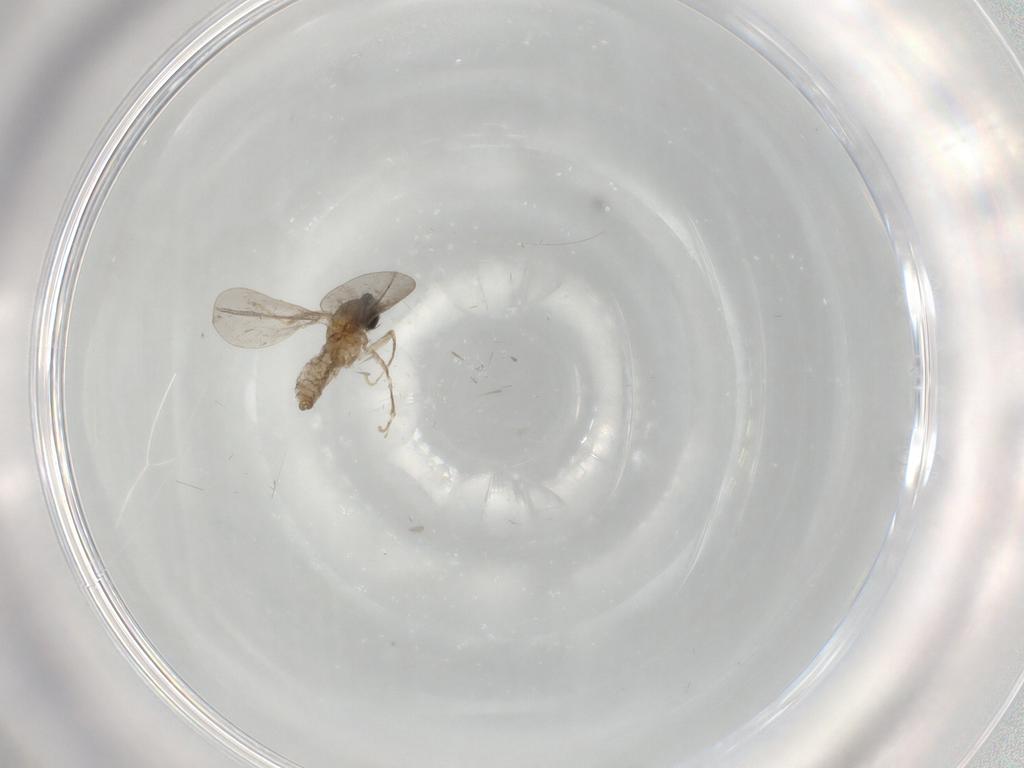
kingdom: Animalia
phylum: Arthropoda
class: Insecta
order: Diptera
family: Cecidomyiidae
